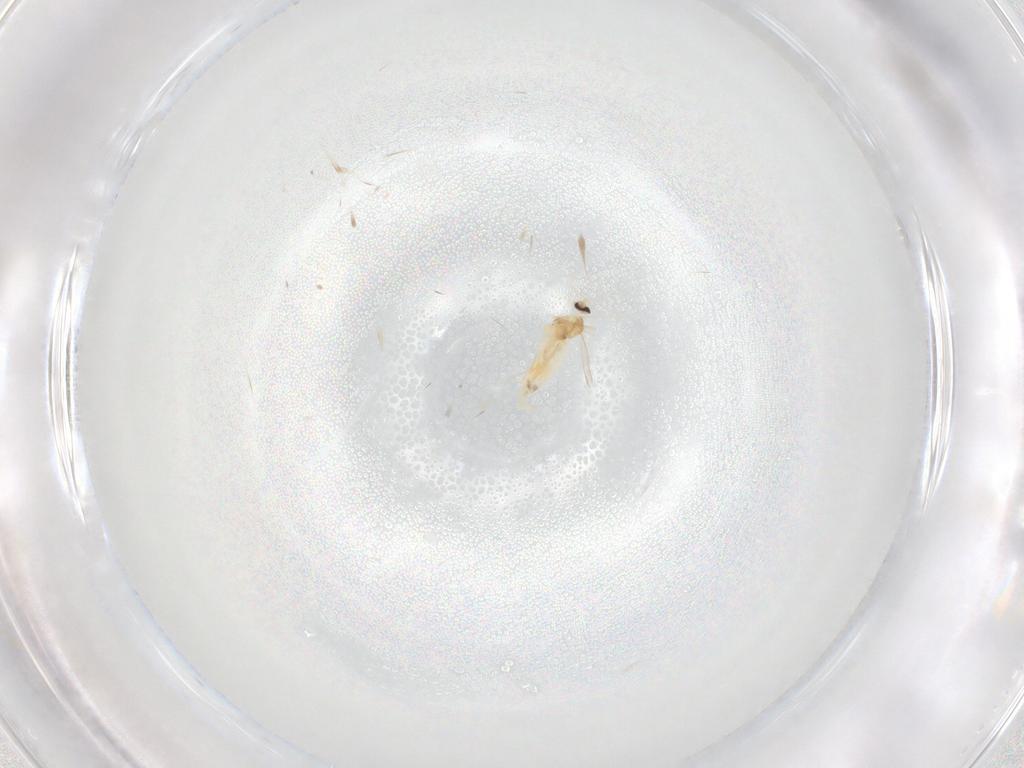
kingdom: Animalia
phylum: Arthropoda
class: Insecta
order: Diptera
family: Cecidomyiidae
